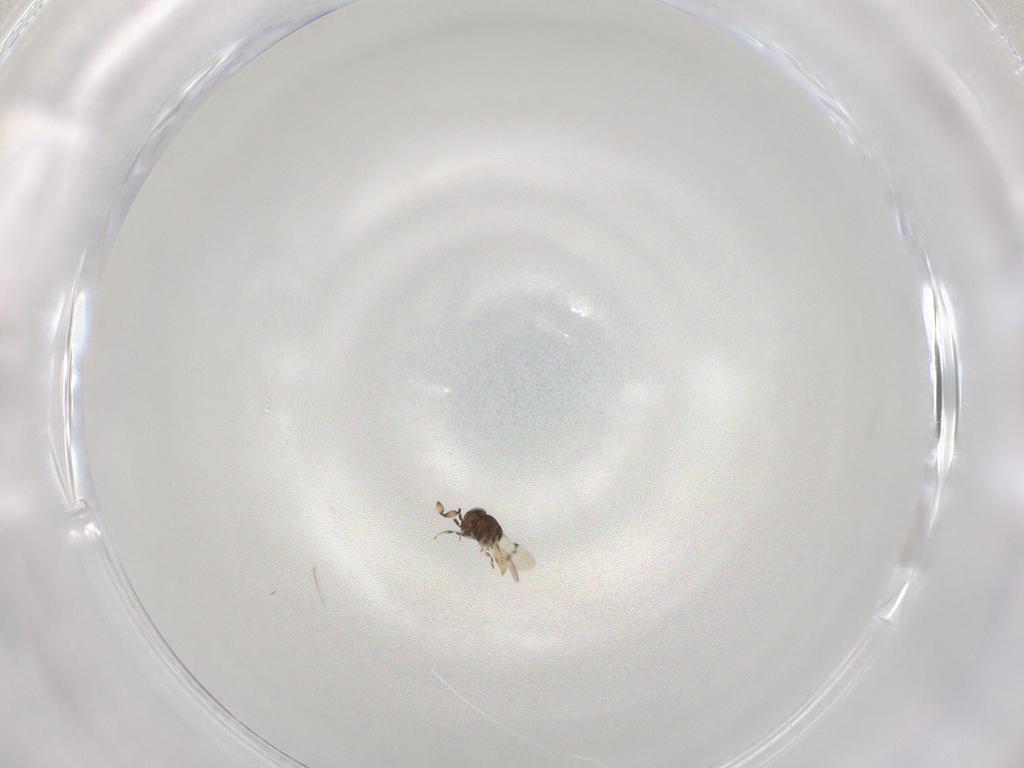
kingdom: Animalia
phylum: Arthropoda
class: Insecta
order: Hymenoptera
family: Scelionidae
